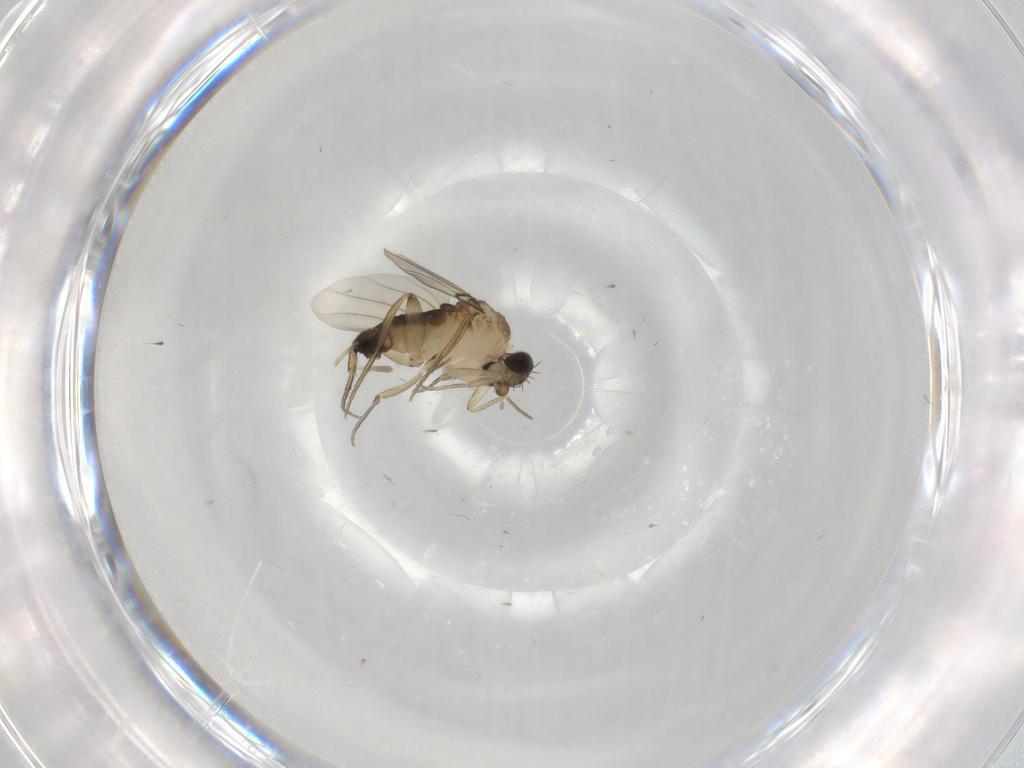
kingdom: Animalia
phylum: Arthropoda
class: Insecta
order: Diptera
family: Phoridae
